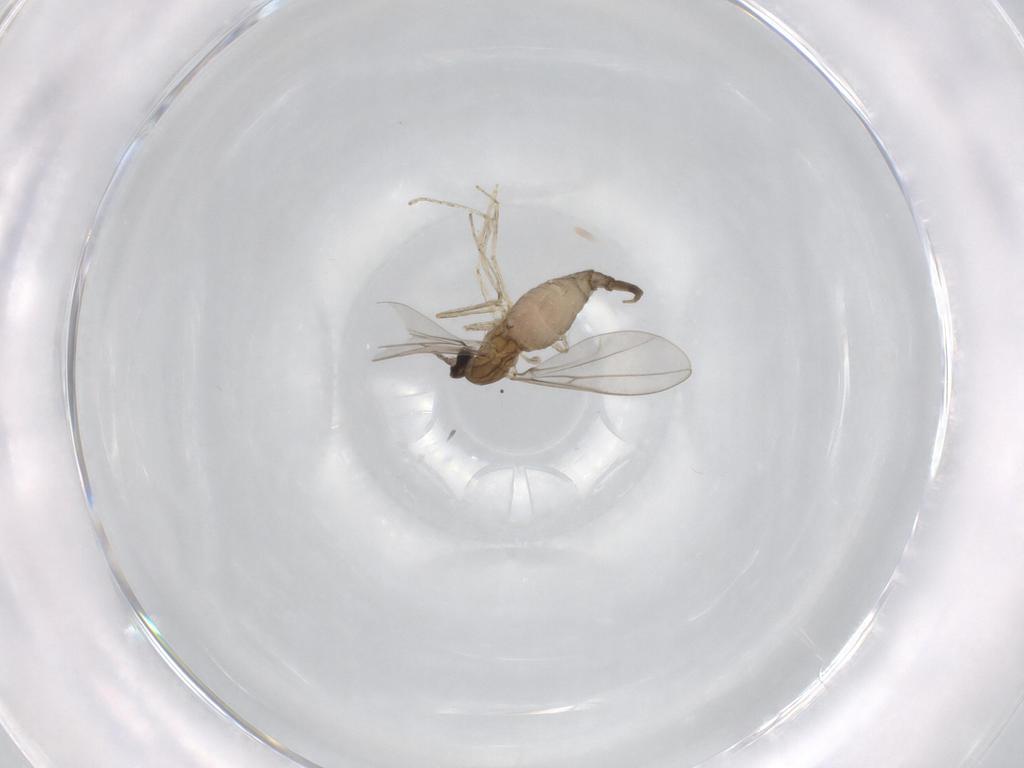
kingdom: Animalia
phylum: Arthropoda
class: Insecta
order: Diptera
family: Cecidomyiidae
